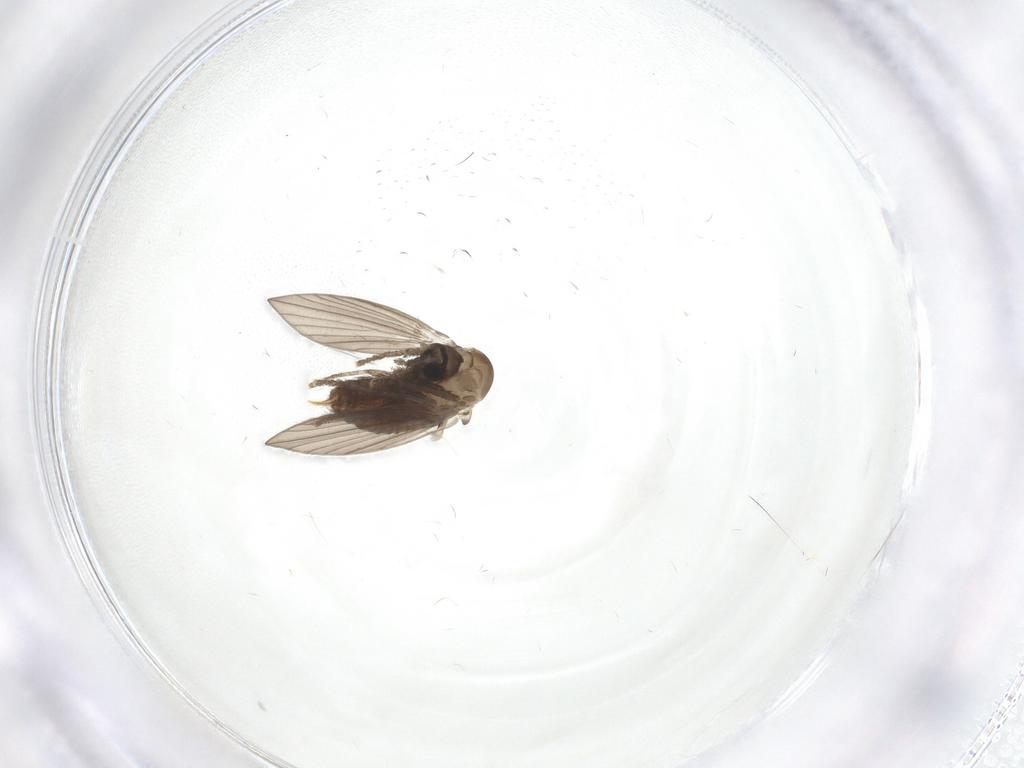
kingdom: Animalia
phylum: Arthropoda
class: Insecta
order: Diptera
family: Psychodidae
